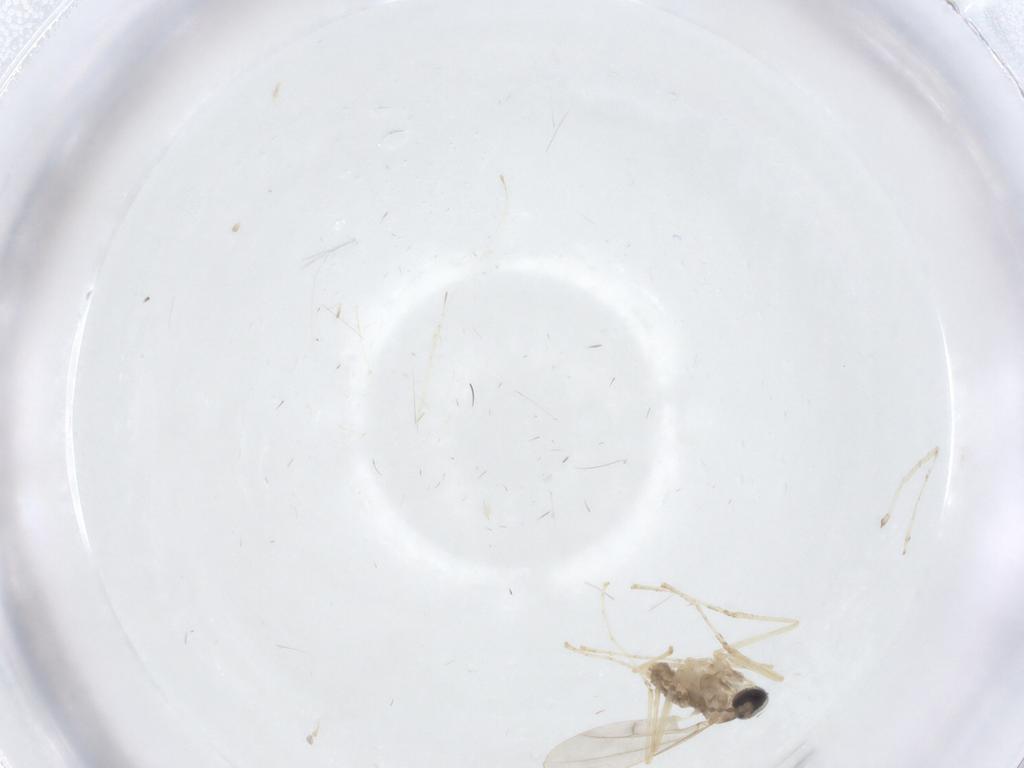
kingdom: Animalia
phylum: Arthropoda
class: Insecta
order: Diptera
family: Cecidomyiidae
